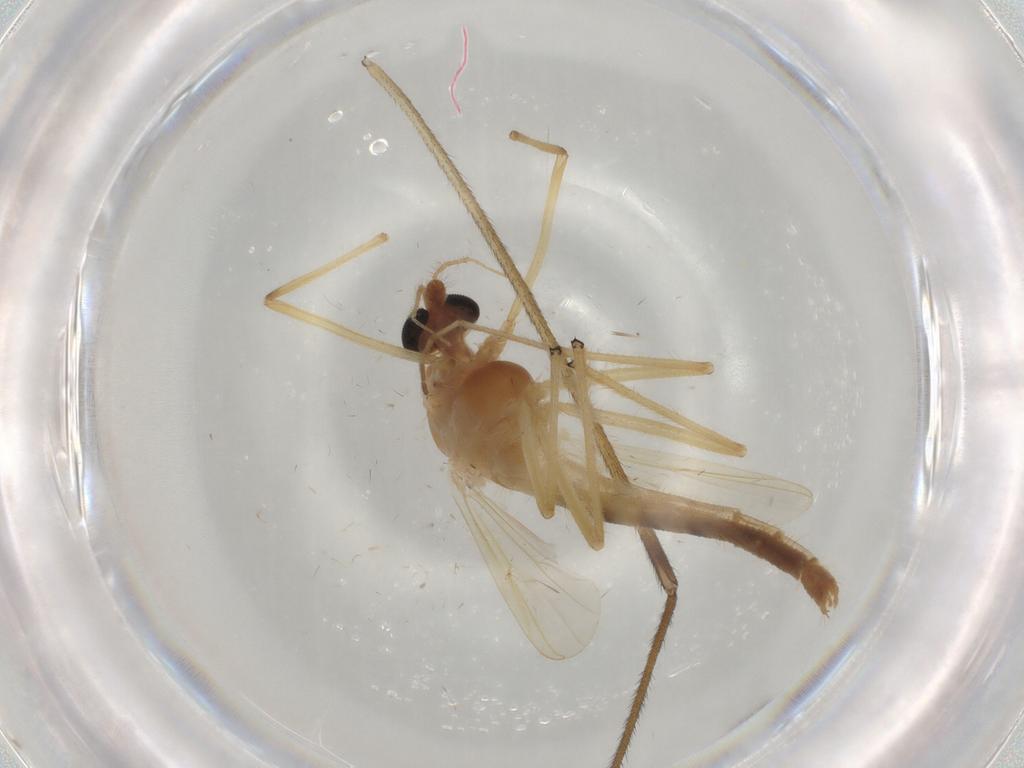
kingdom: Animalia
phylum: Arthropoda
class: Insecta
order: Diptera
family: Limoniidae
